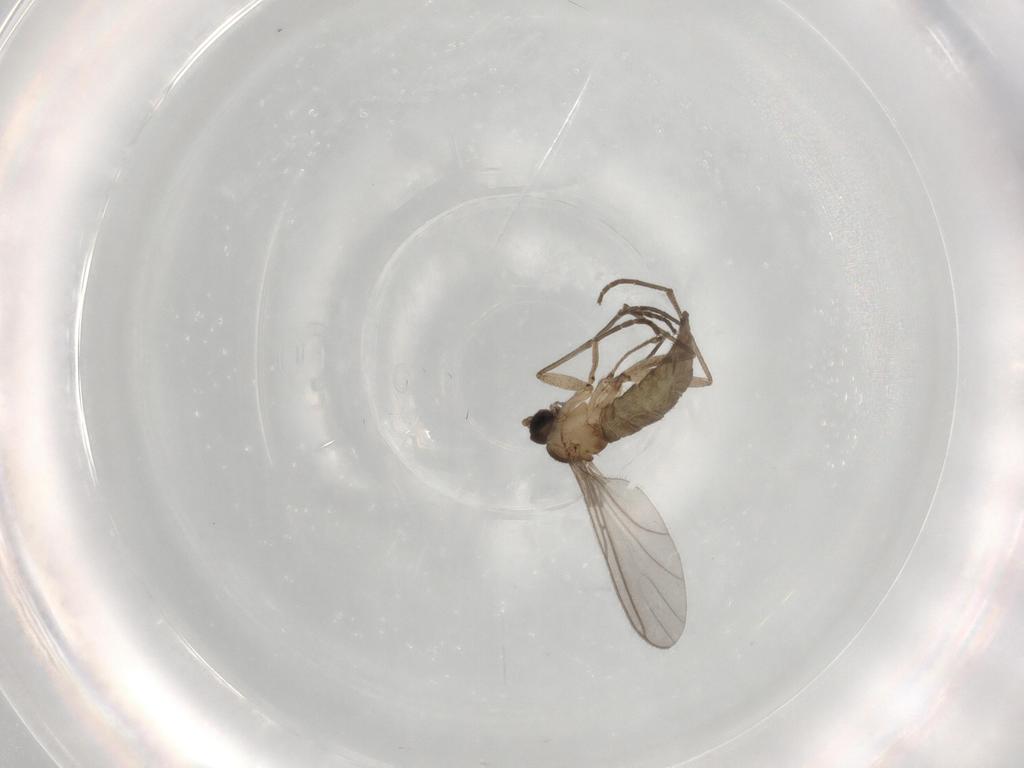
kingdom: Animalia
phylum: Arthropoda
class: Insecta
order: Diptera
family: Sciaridae
